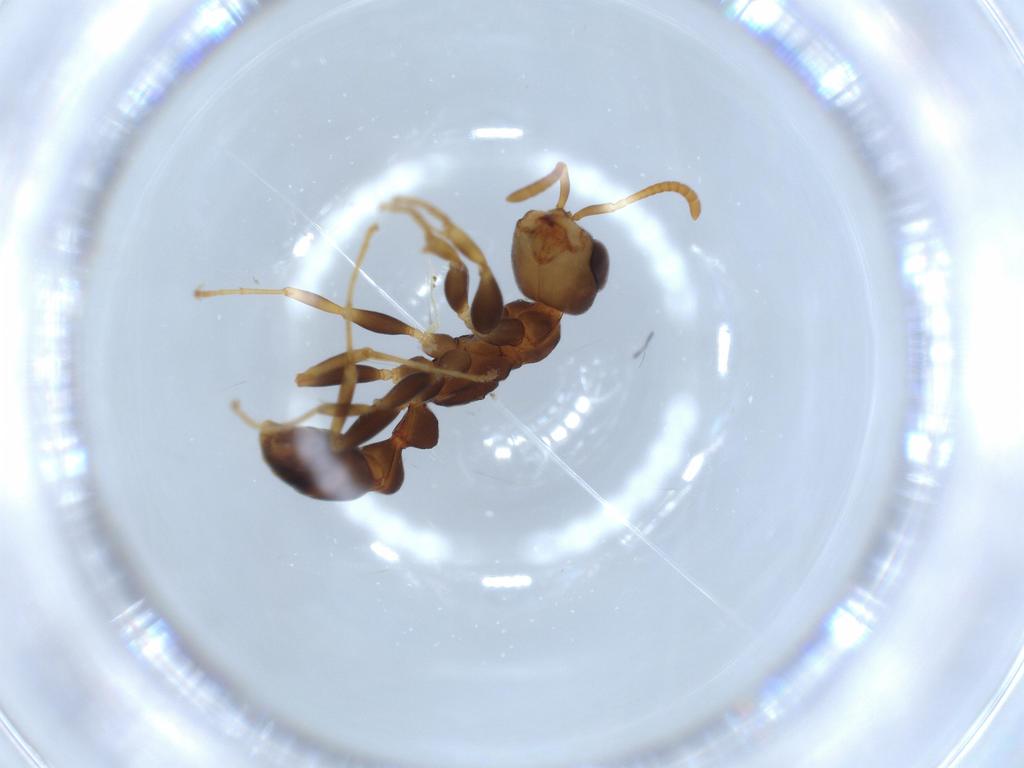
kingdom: Animalia
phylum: Arthropoda
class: Insecta
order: Hymenoptera
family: Formicidae
